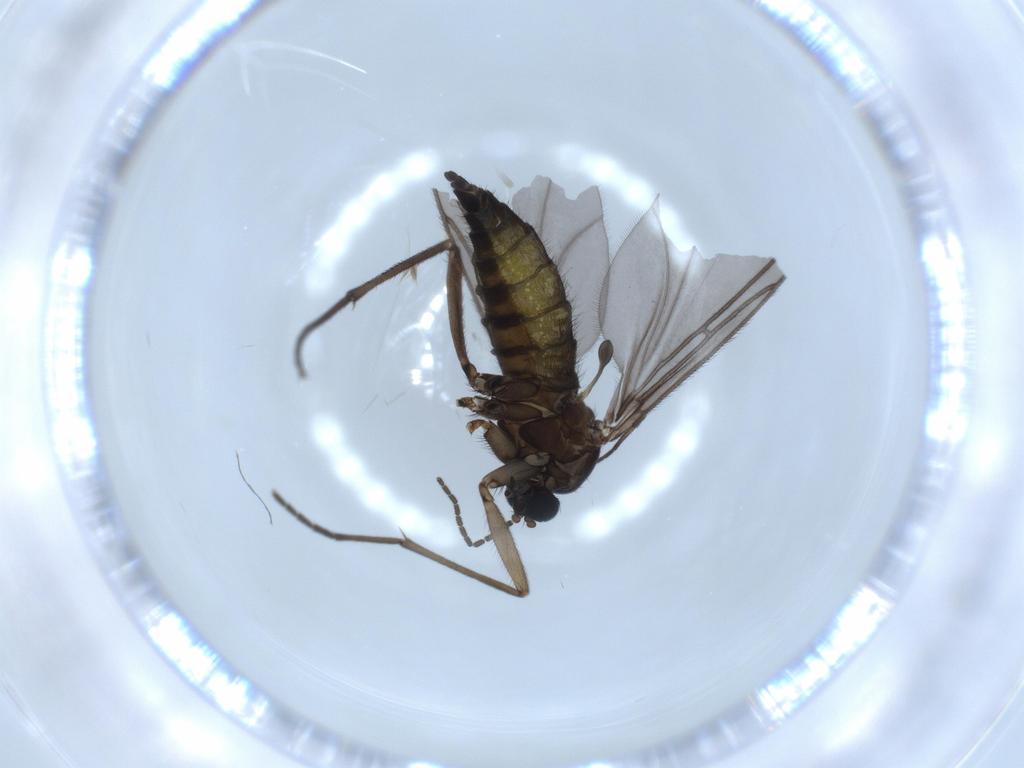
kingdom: Animalia
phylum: Arthropoda
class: Insecta
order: Diptera
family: Sciaridae
